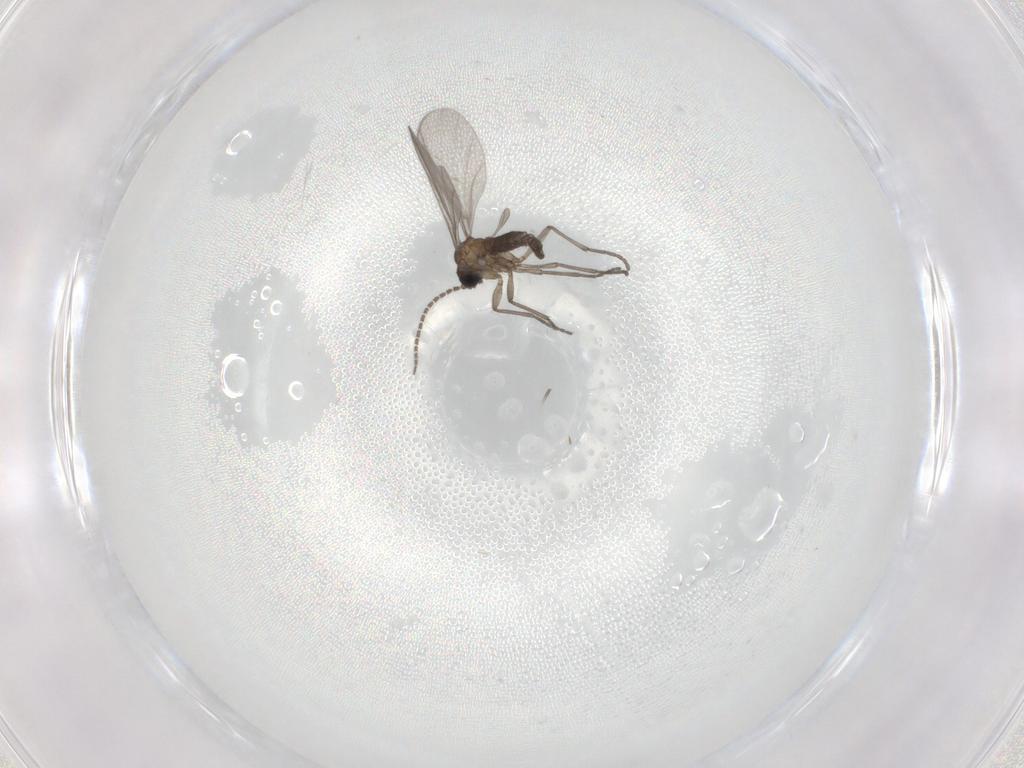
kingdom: Animalia
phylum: Arthropoda
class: Insecta
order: Diptera
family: Sciaridae
